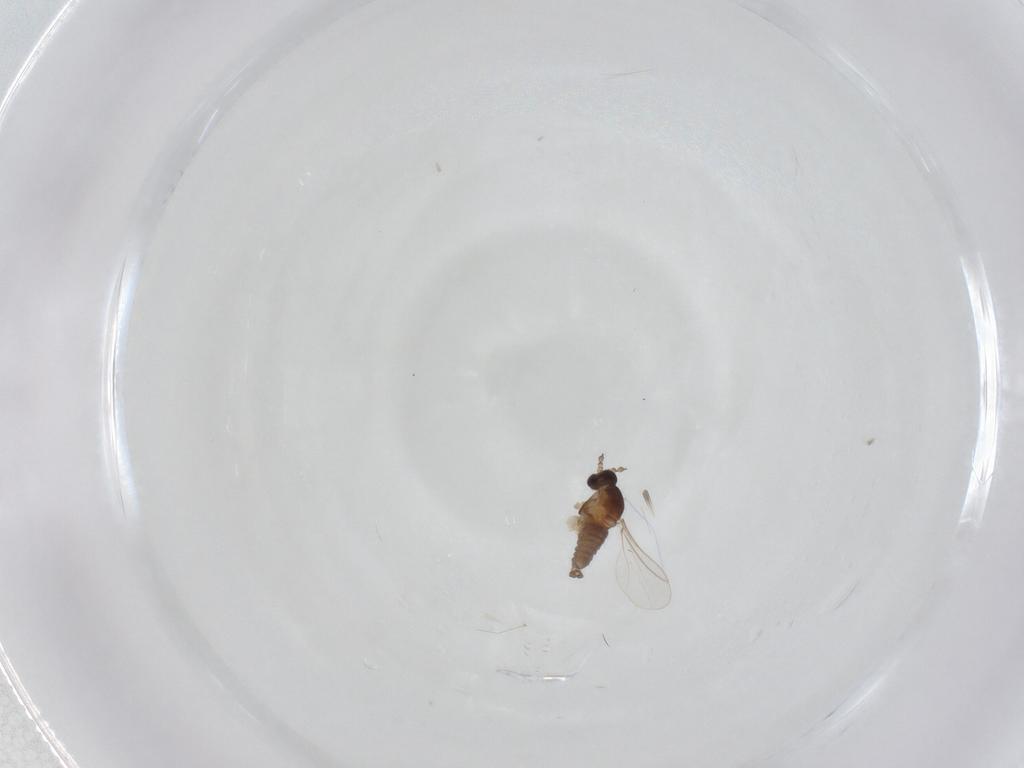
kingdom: Animalia
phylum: Arthropoda
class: Insecta
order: Diptera
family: Cecidomyiidae
